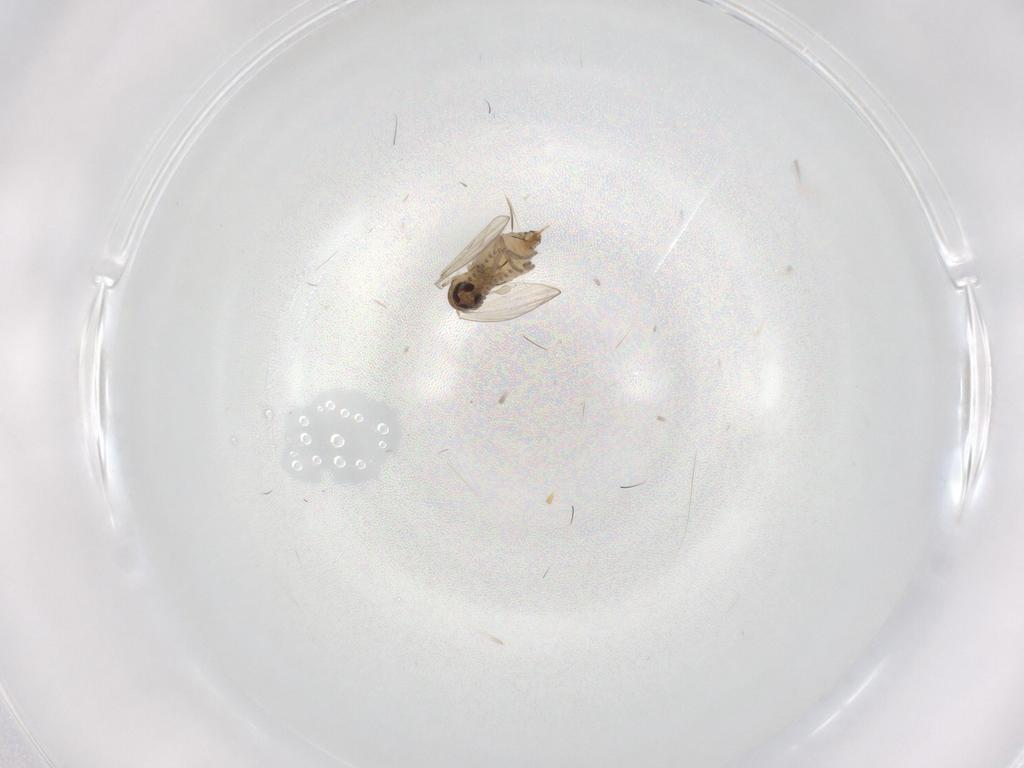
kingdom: Animalia
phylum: Arthropoda
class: Insecta
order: Diptera
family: Psychodidae
